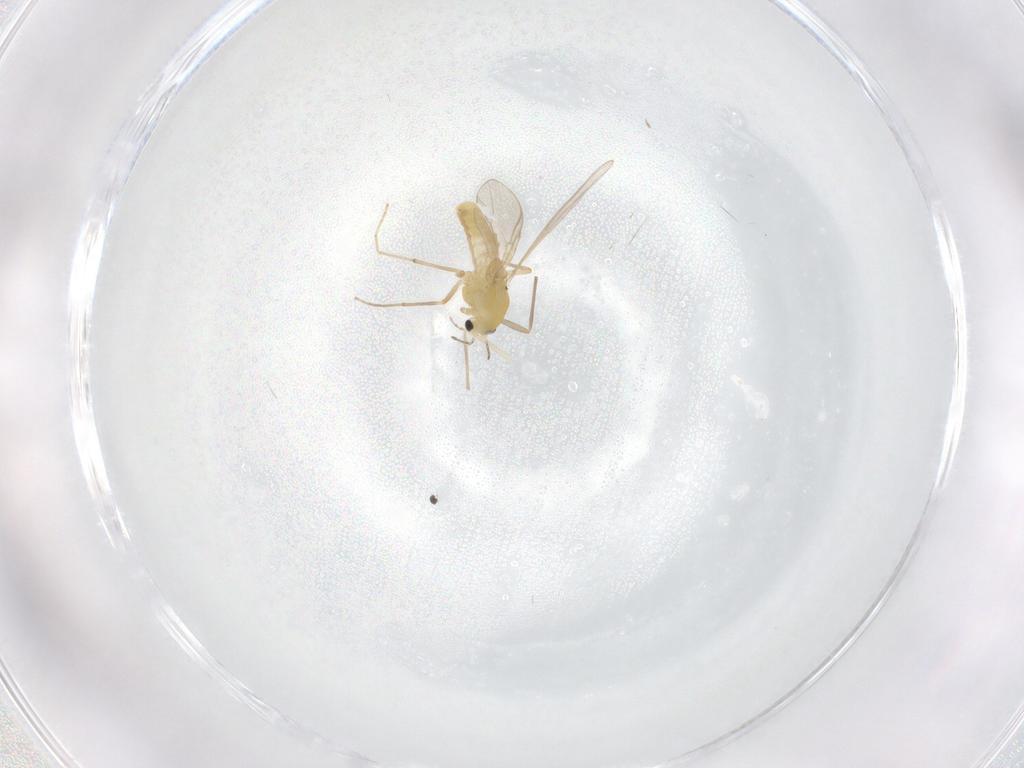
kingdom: Animalia
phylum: Arthropoda
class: Insecta
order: Diptera
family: Chironomidae
